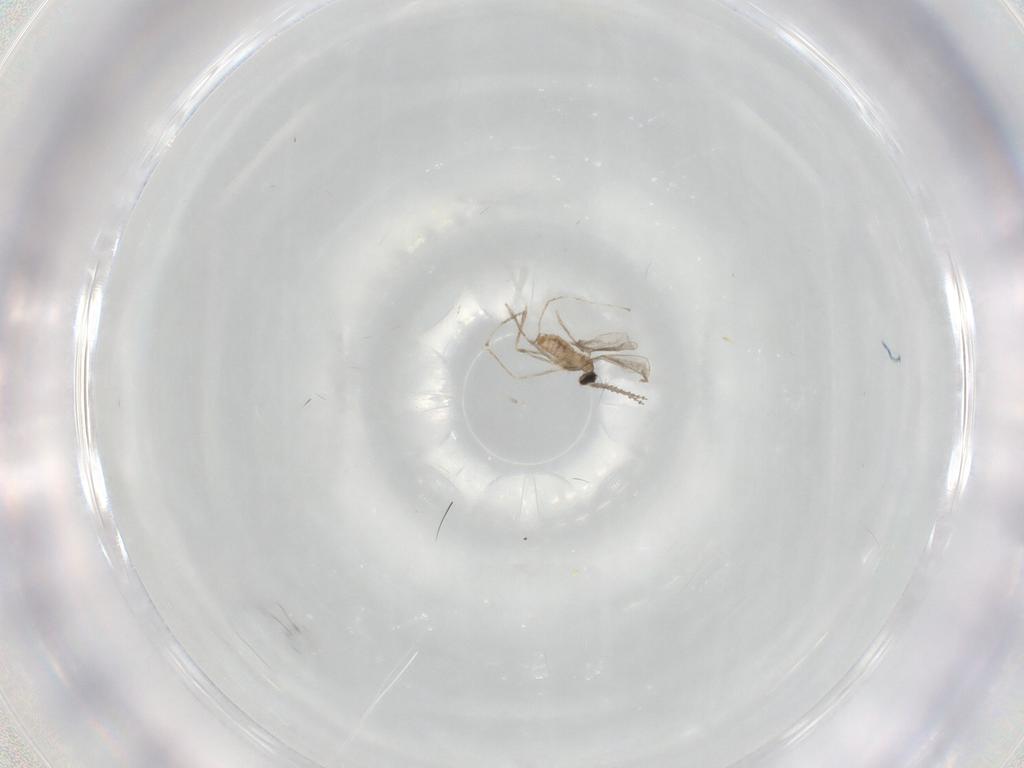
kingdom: Animalia
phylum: Arthropoda
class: Insecta
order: Diptera
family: Cecidomyiidae
